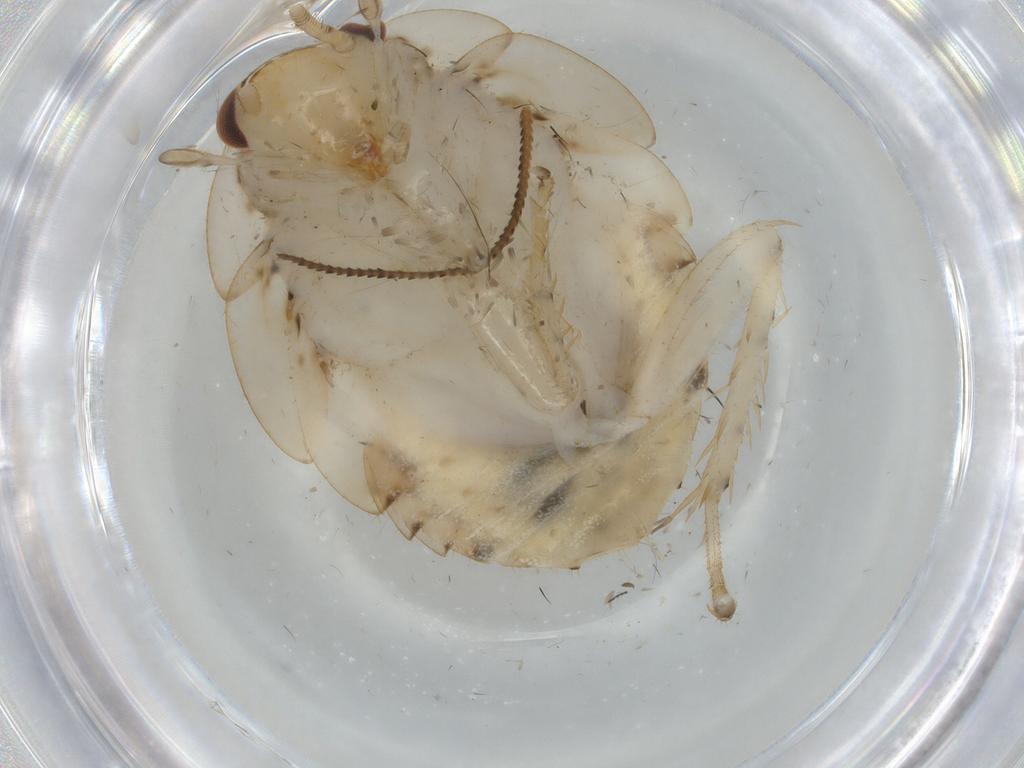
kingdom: Animalia
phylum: Arthropoda
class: Insecta
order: Blattodea
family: Ectobiidae
